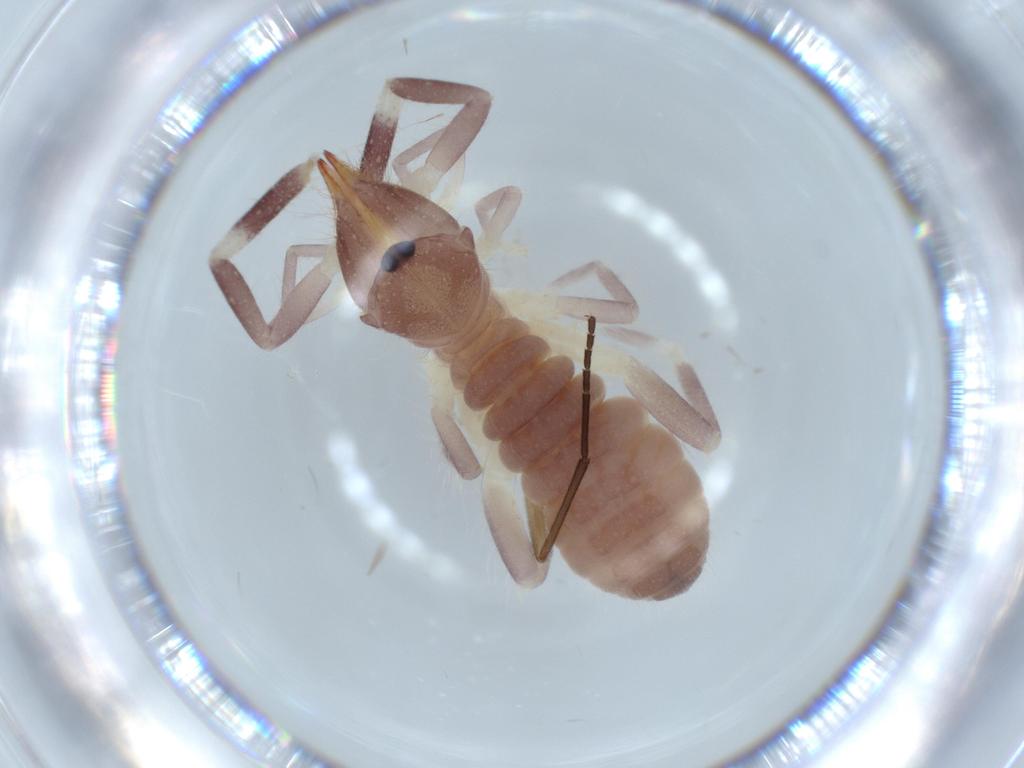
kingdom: Animalia
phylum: Arthropoda
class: Arachnida
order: Solifugae
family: Ammotrechidae
